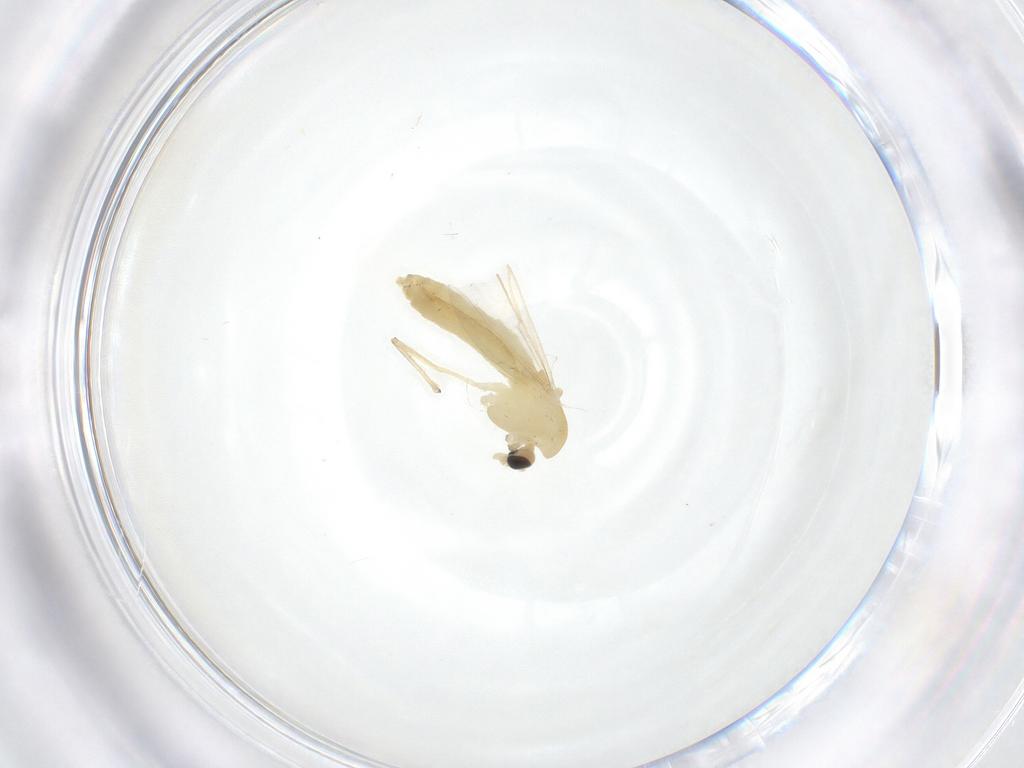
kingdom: Animalia
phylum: Arthropoda
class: Insecta
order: Diptera
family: Chironomidae
